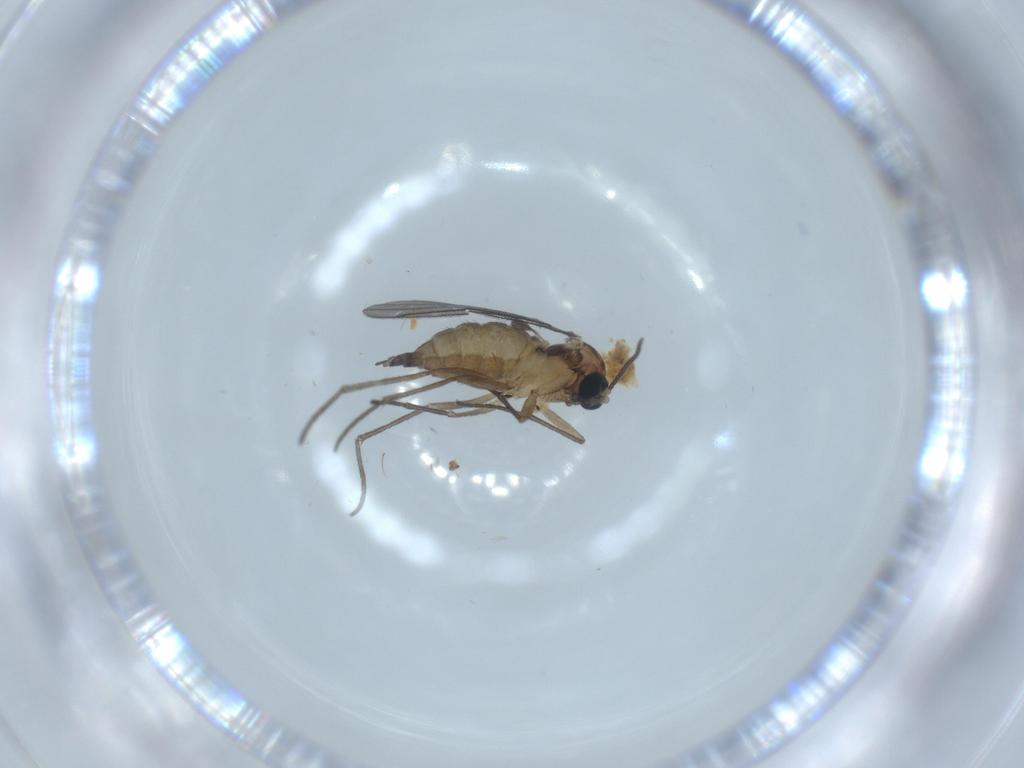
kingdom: Animalia
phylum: Arthropoda
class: Insecta
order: Diptera
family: Sciaridae
